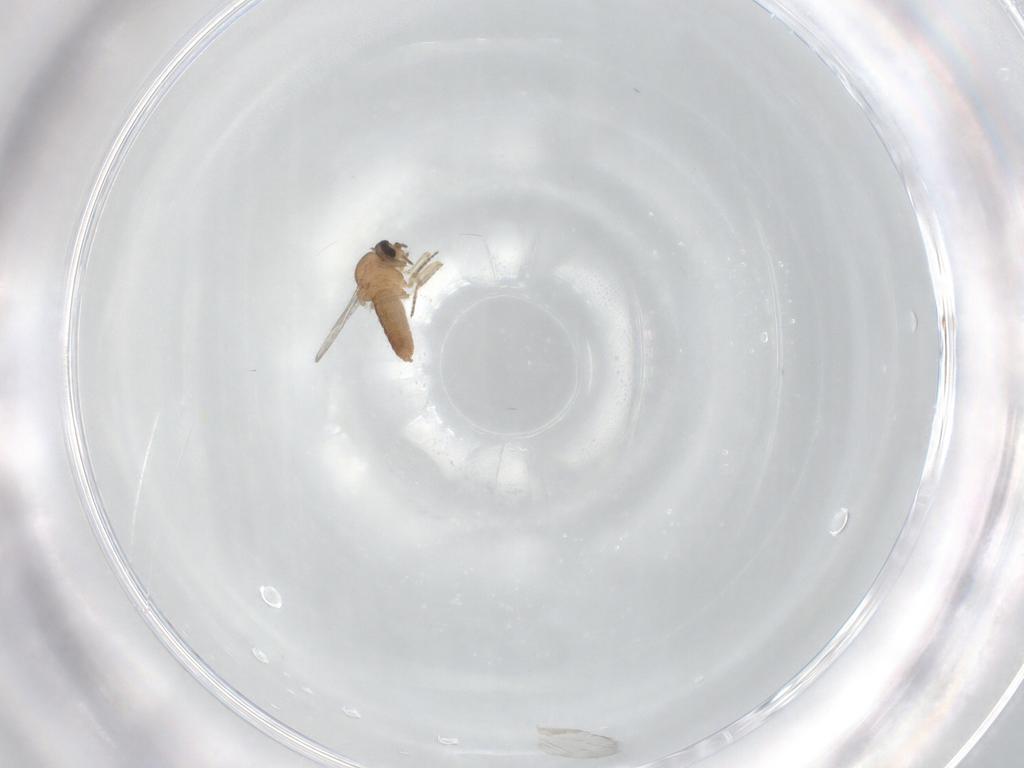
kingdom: Animalia
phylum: Arthropoda
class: Insecta
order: Diptera
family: Ceratopogonidae
